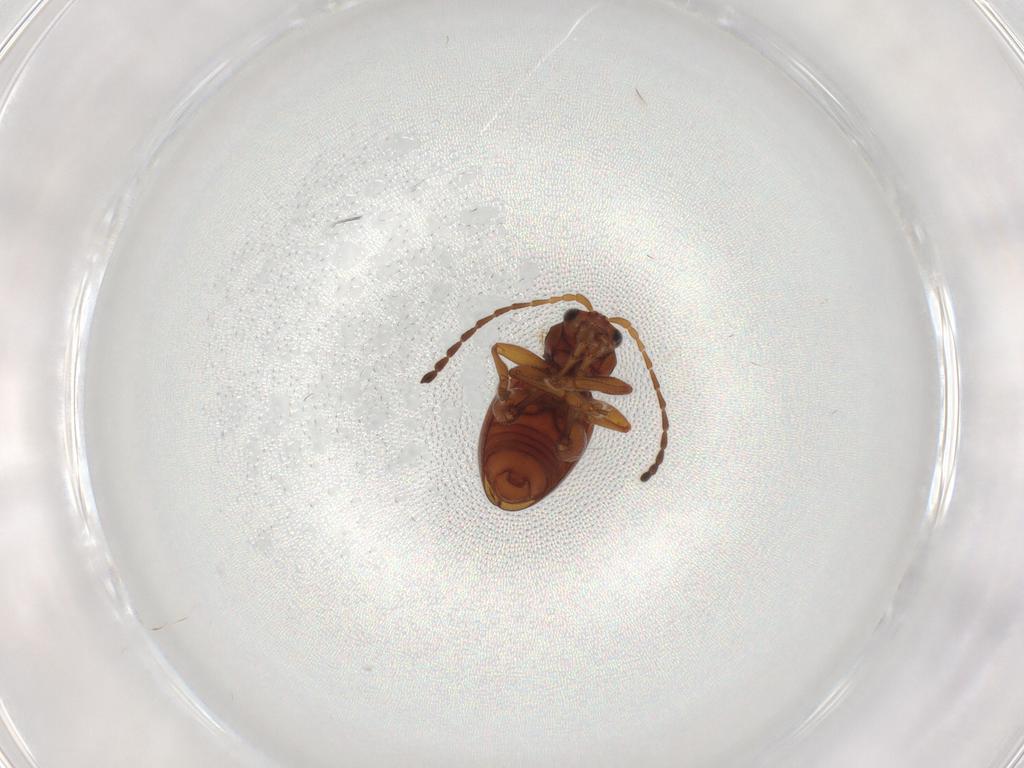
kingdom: Animalia
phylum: Arthropoda
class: Insecta
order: Coleoptera
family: Chrysomelidae
